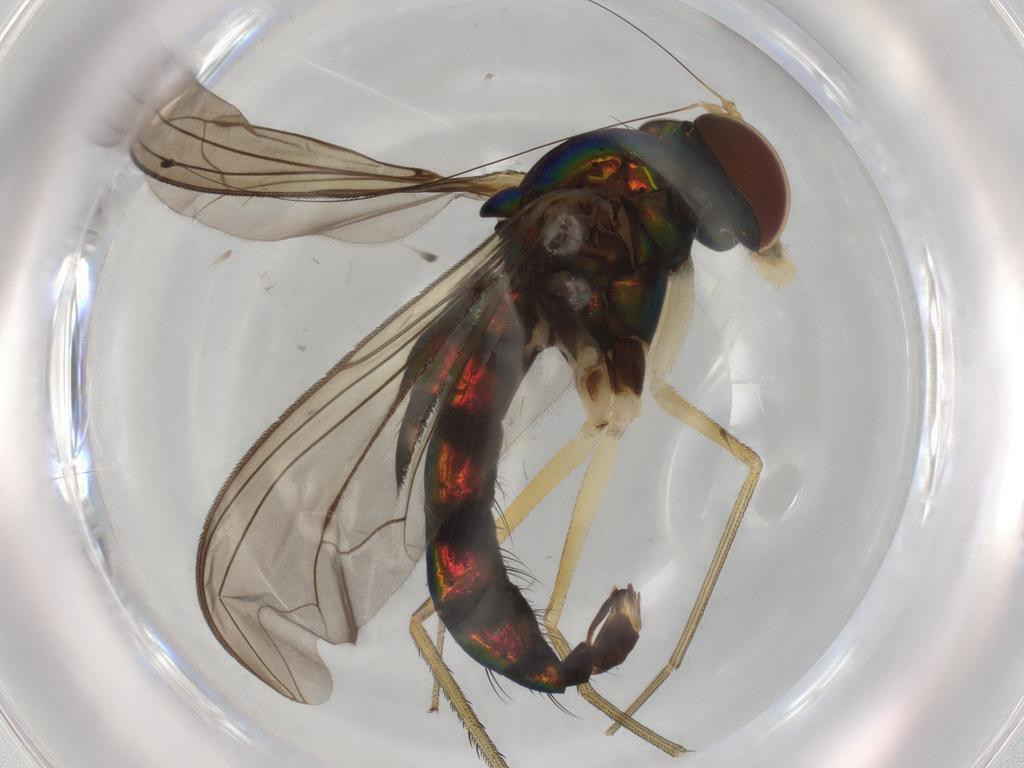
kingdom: Animalia
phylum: Arthropoda
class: Insecta
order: Diptera
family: Dolichopodidae
